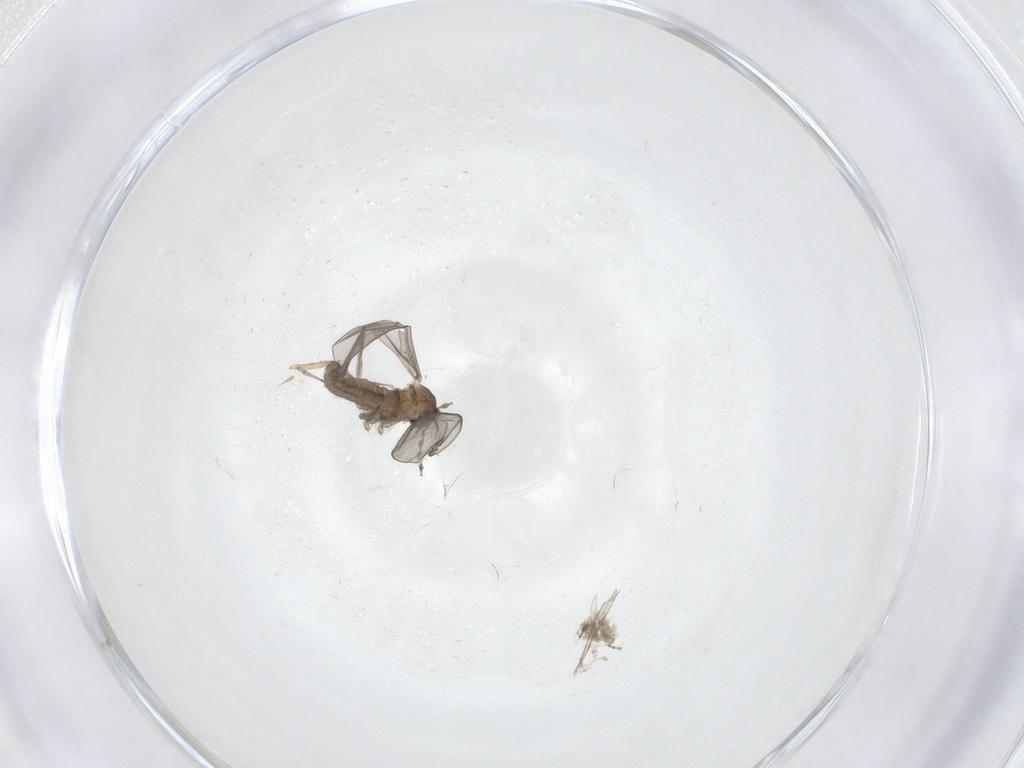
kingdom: Animalia
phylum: Arthropoda
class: Insecta
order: Diptera
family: Cecidomyiidae
